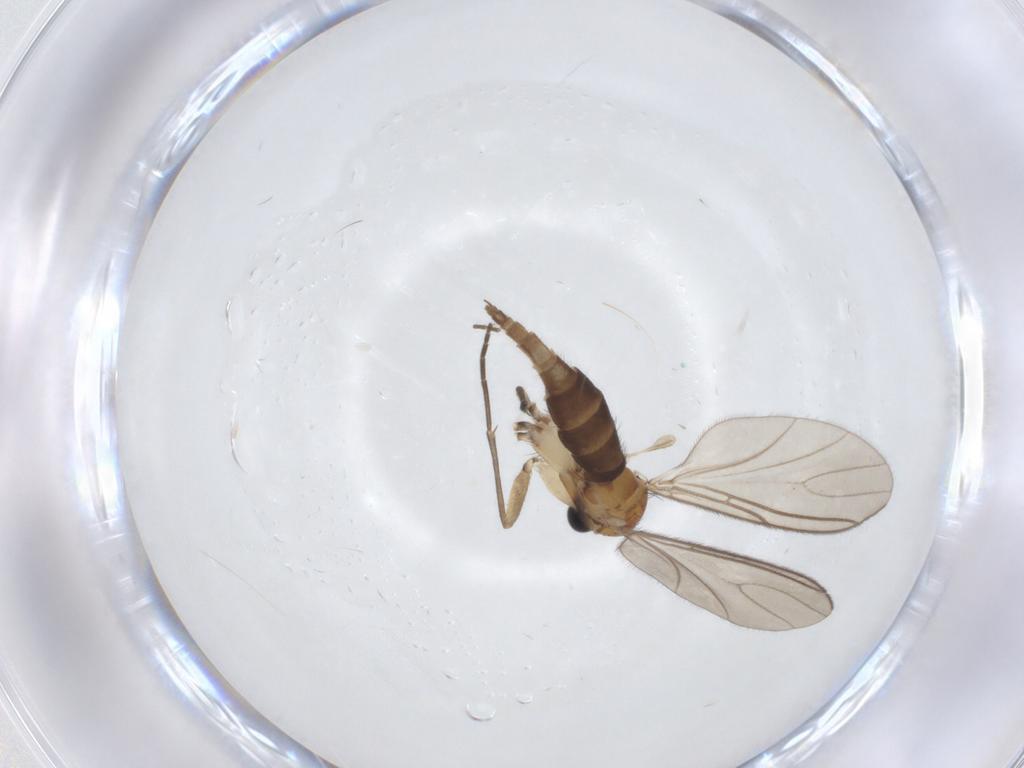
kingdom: Animalia
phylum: Arthropoda
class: Insecta
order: Diptera
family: Sciaridae
